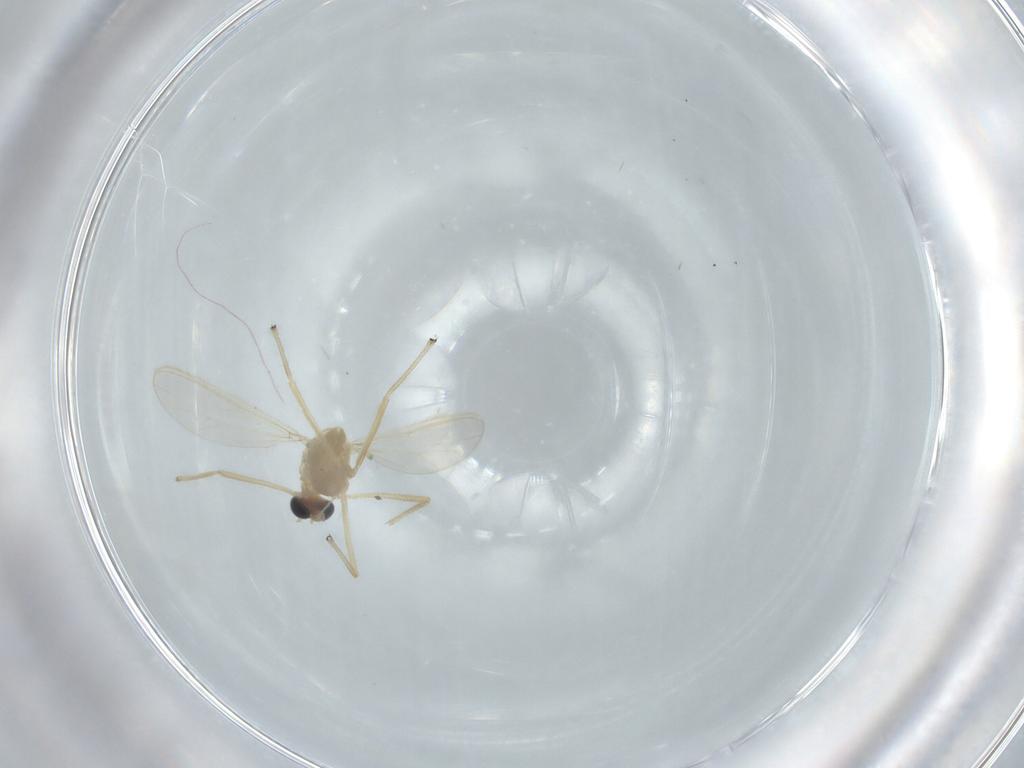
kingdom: Animalia
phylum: Arthropoda
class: Insecta
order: Diptera
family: Chironomidae
